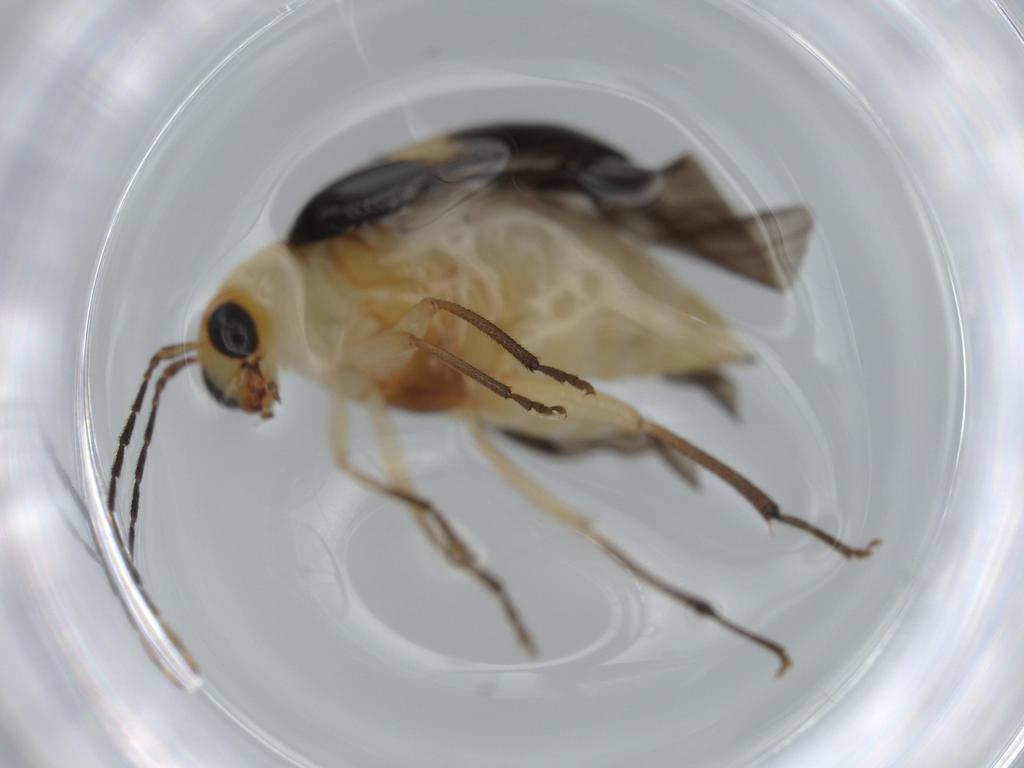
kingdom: Animalia
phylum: Arthropoda
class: Insecta
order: Coleoptera
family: Chrysomelidae
